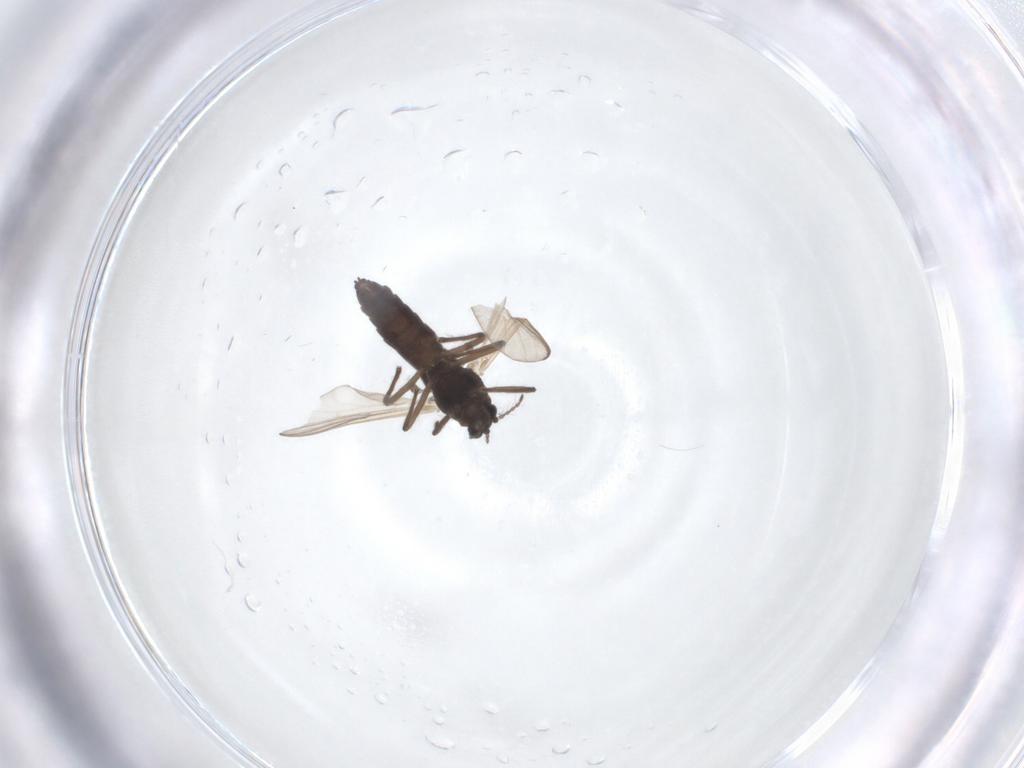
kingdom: Animalia
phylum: Arthropoda
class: Insecta
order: Diptera
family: Chironomidae
